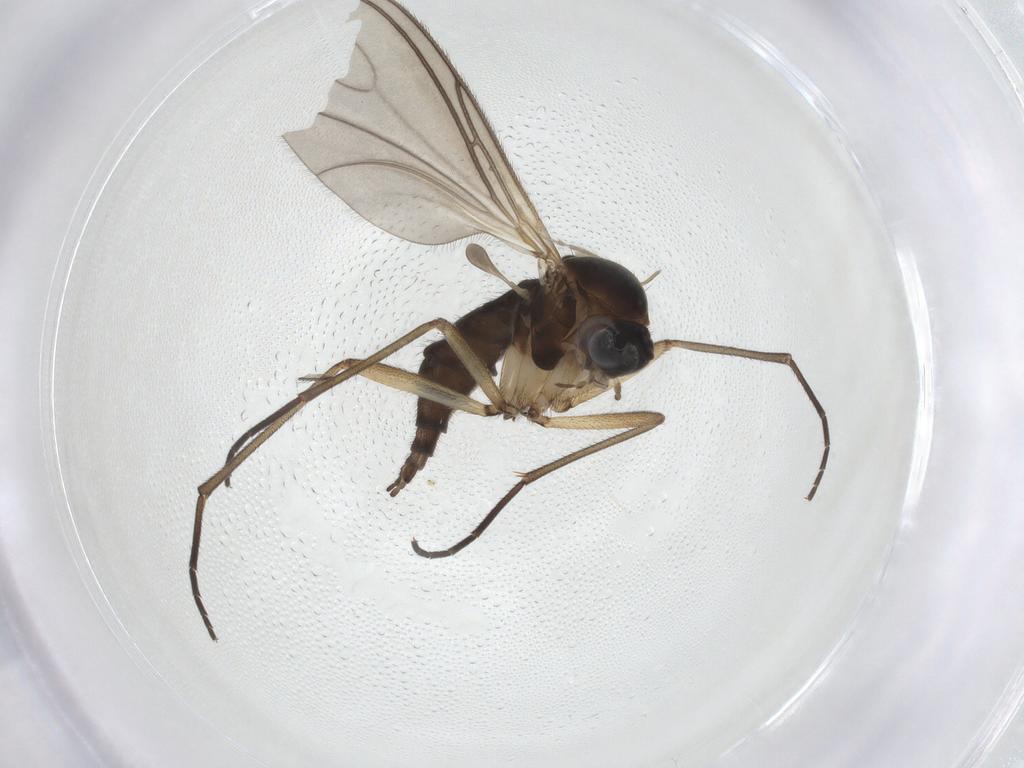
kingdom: Animalia
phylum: Arthropoda
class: Insecta
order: Diptera
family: Sciaridae
